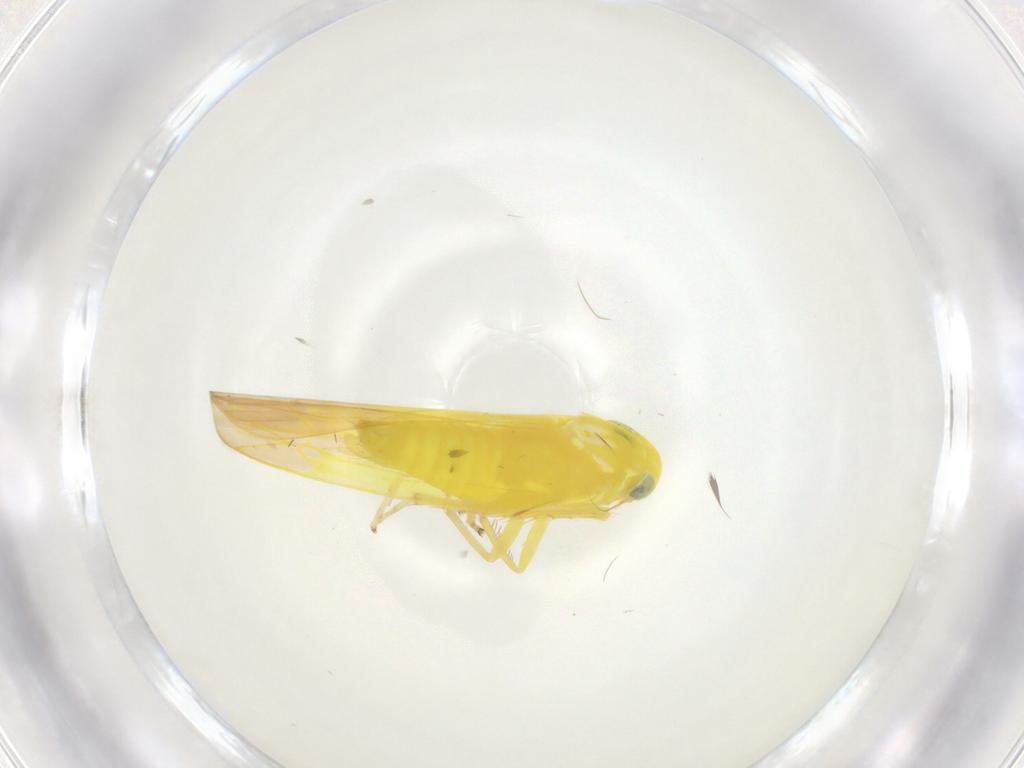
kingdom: Animalia
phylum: Arthropoda
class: Insecta
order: Hemiptera
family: Cicadellidae
